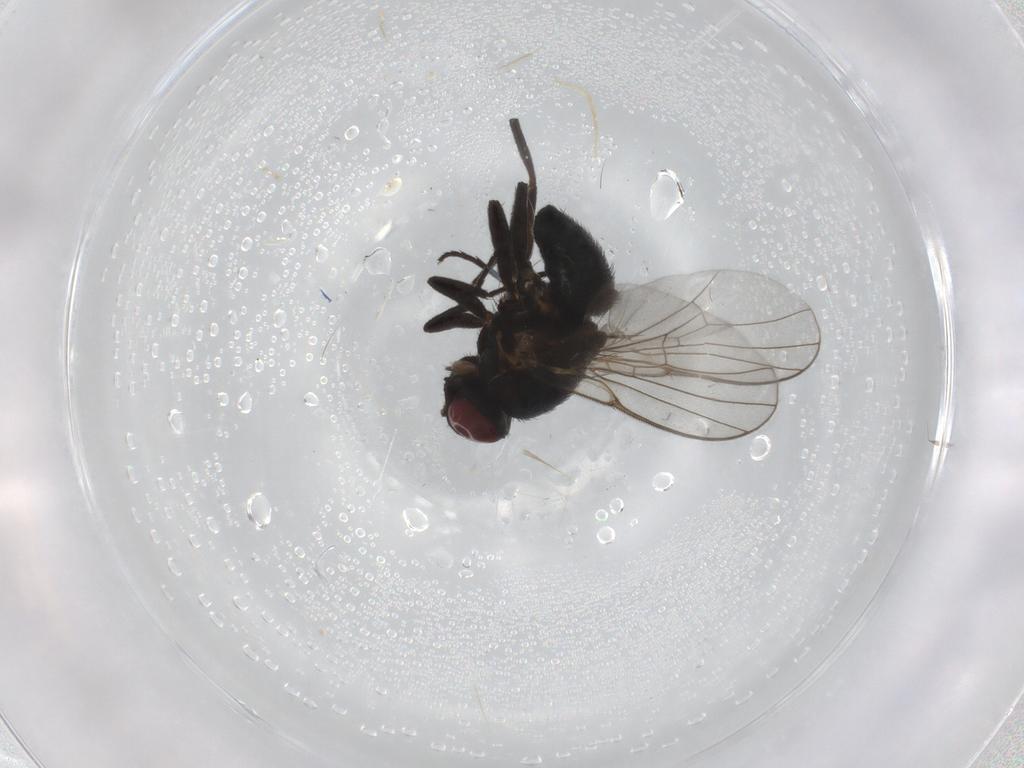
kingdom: Animalia
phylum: Arthropoda
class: Insecta
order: Diptera
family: Agromyzidae
